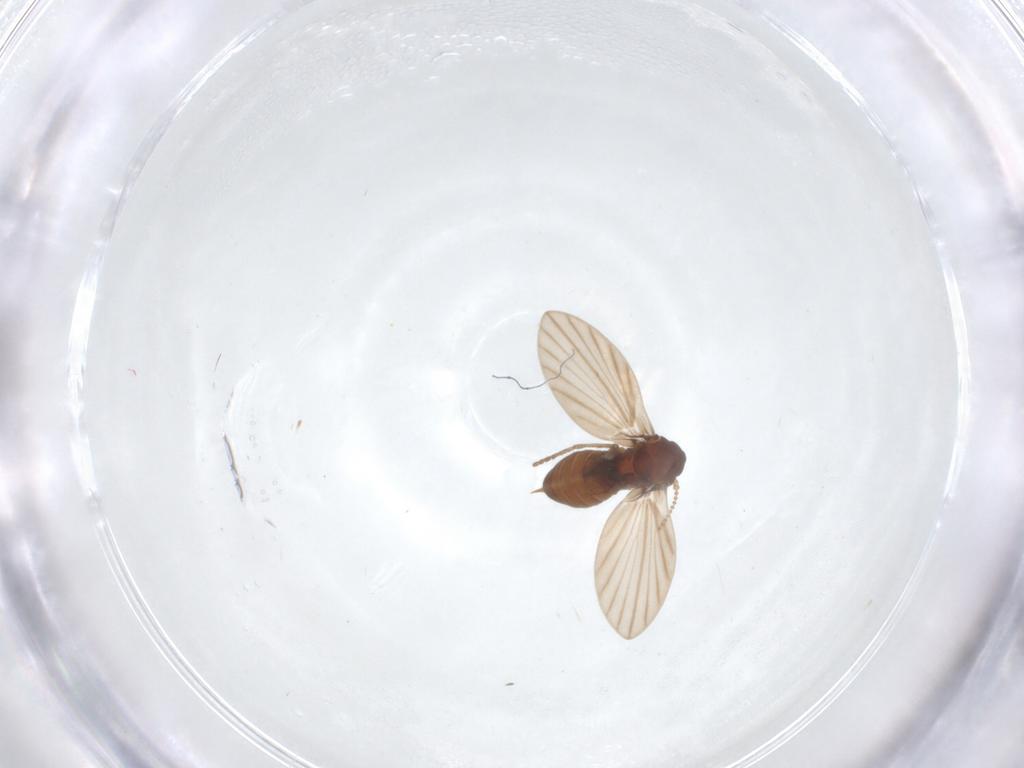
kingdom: Animalia
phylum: Arthropoda
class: Insecta
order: Diptera
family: Psychodidae
